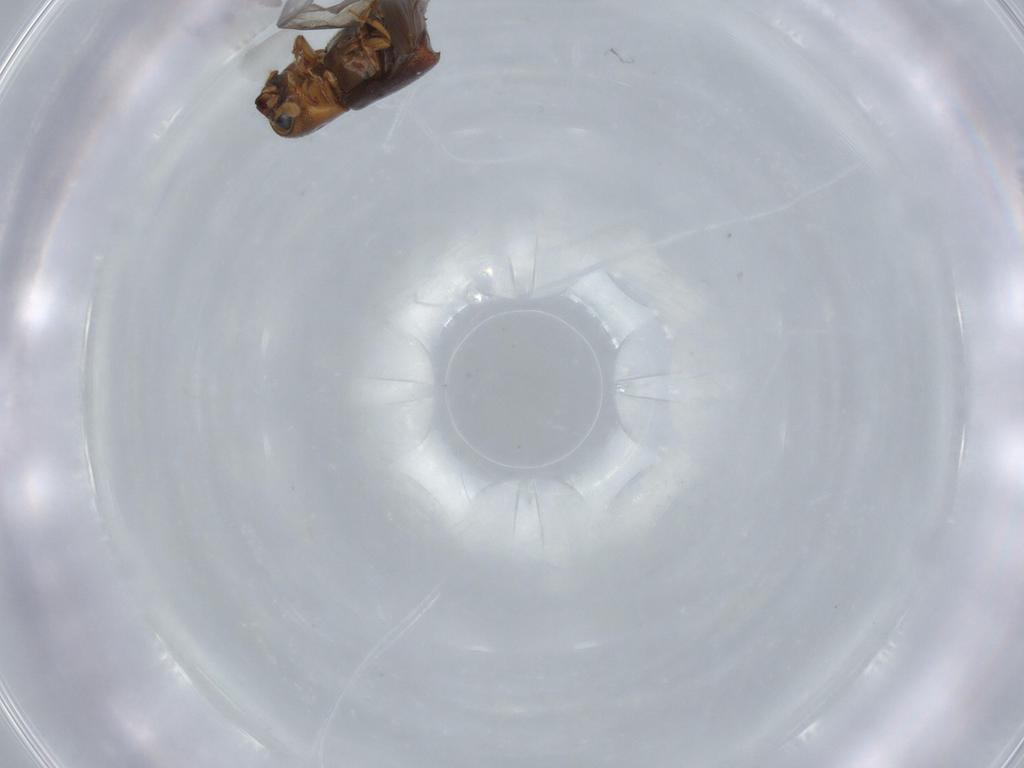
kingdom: Animalia
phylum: Arthropoda
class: Insecta
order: Coleoptera
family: Curculionidae
